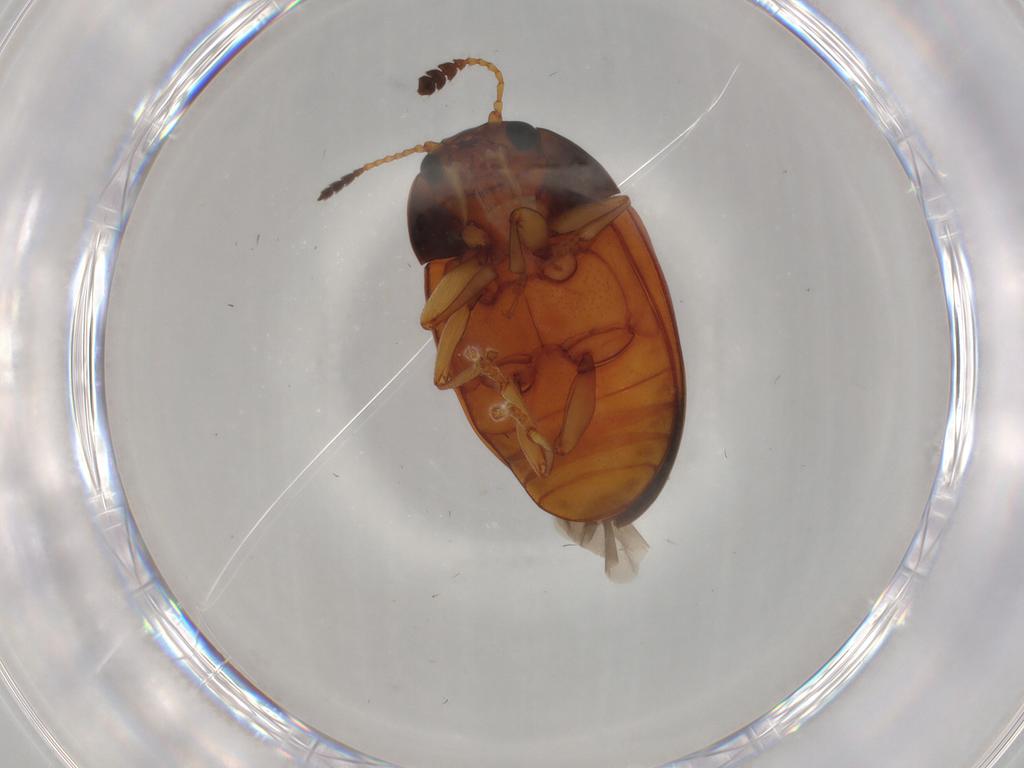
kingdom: Animalia
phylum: Arthropoda
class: Insecta
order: Coleoptera
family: Erotylidae
